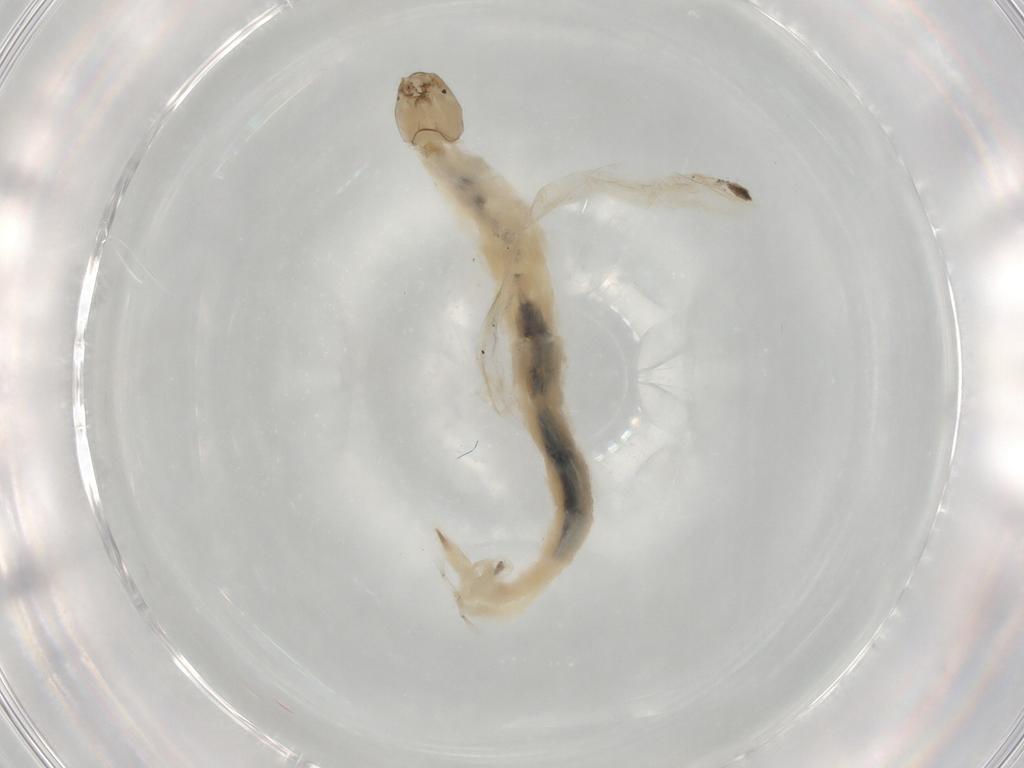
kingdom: Animalia
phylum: Arthropoda
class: Insecta
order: Diptera
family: Chironomidae
